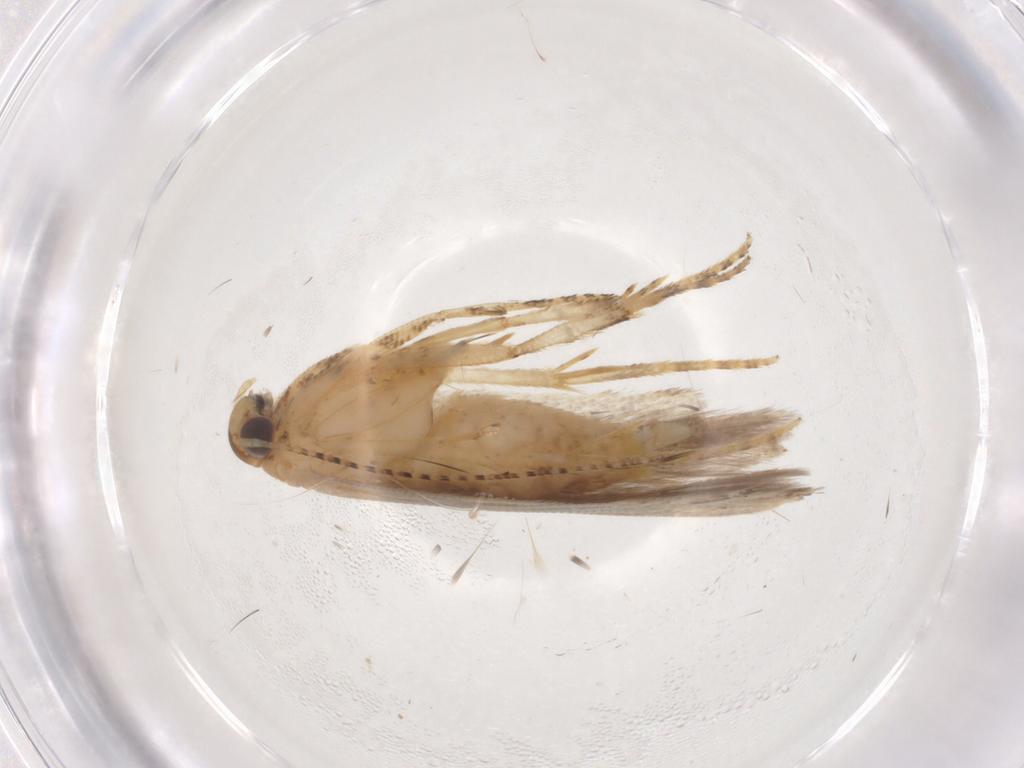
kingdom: Animalia
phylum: Arthropoda
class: Insecta
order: Lepidoptera
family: Gelechiidae
